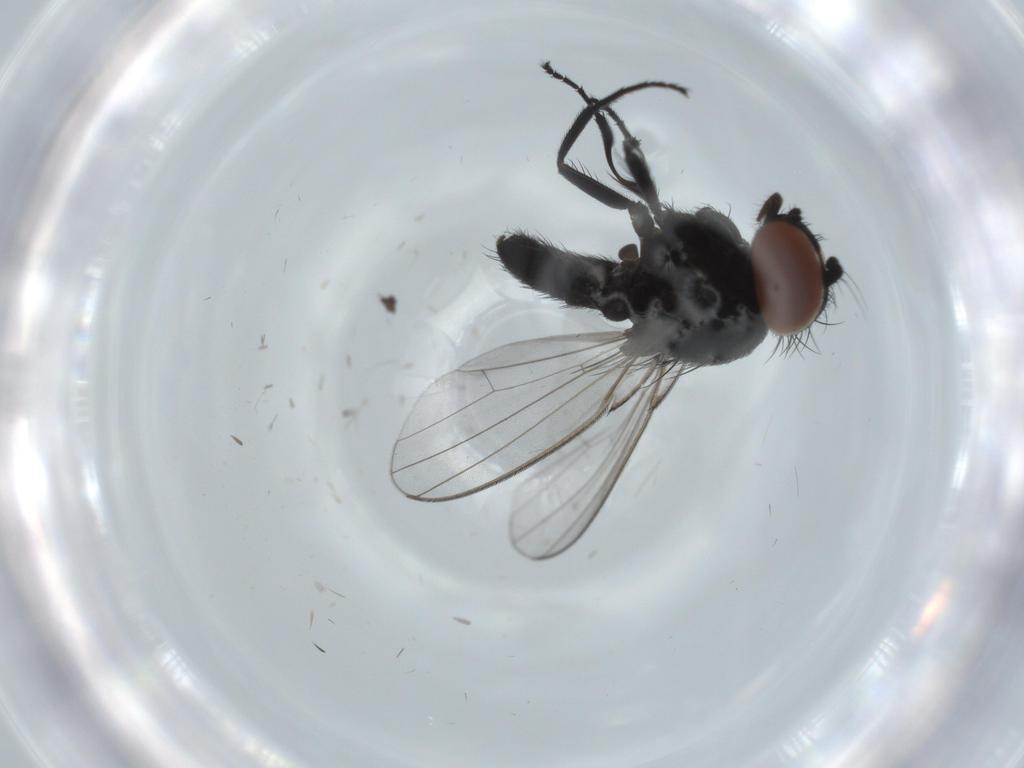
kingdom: Animalia
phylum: Arthropoda
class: Insecta
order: Diptera
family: Milichiidae
